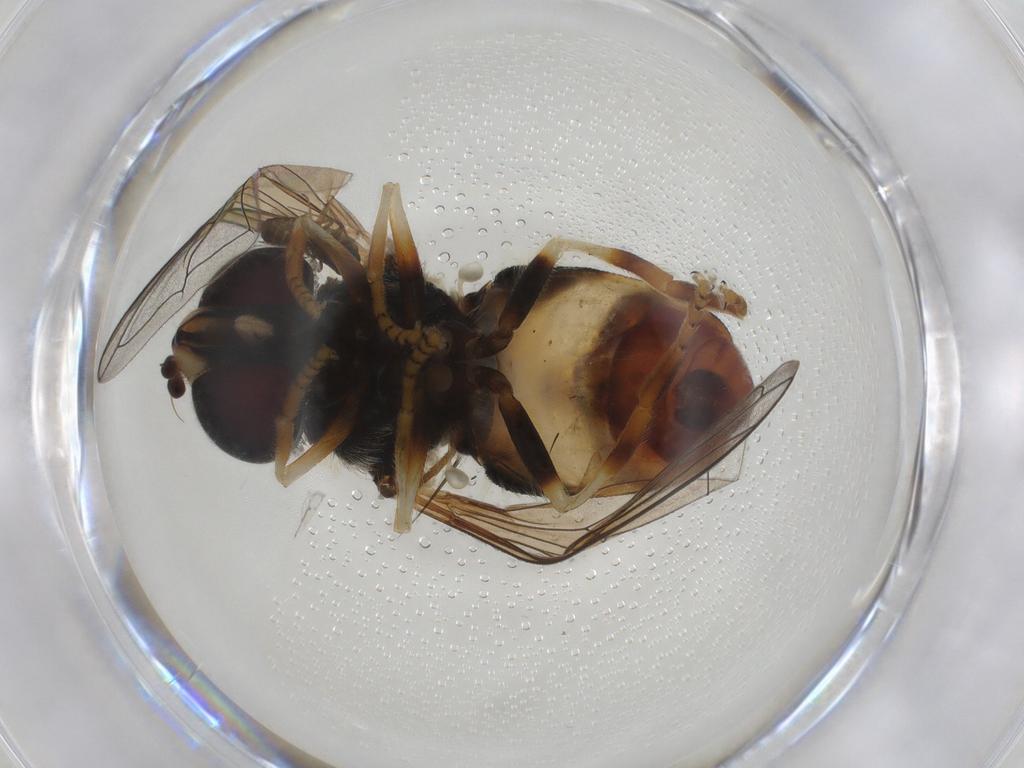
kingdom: Animalia
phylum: Arthropoda
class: Insecta
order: Diptera
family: Syrphidae
